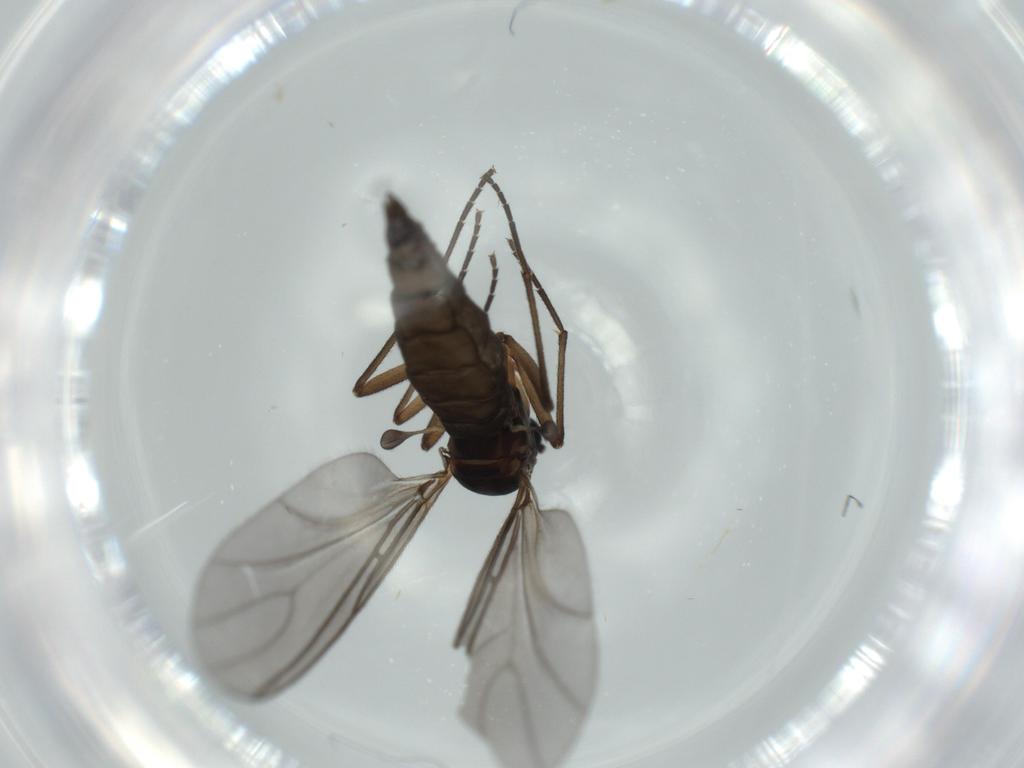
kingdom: Animalia
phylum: Arthropoda
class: Insecta
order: Diptera
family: Sciaridae
